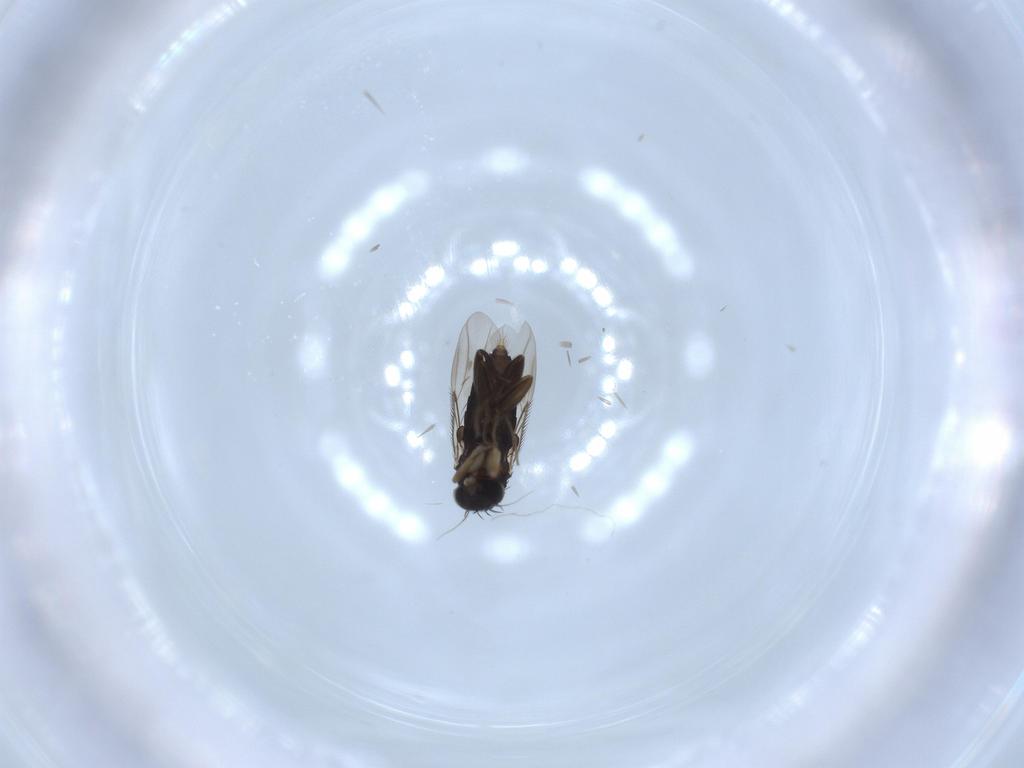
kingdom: Animalia
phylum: Arthropoda
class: Insecta
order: Diptera
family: Phoridae
